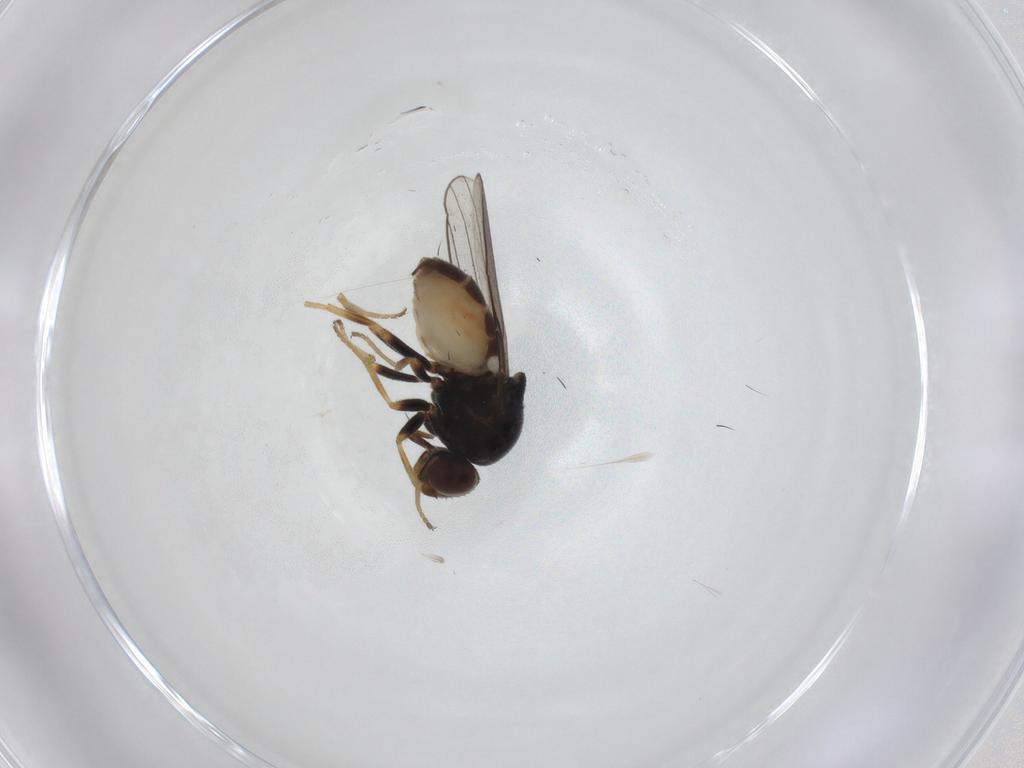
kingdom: Animalia
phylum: Arthropoda
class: Insecta
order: Diptera
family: Chloropidae
